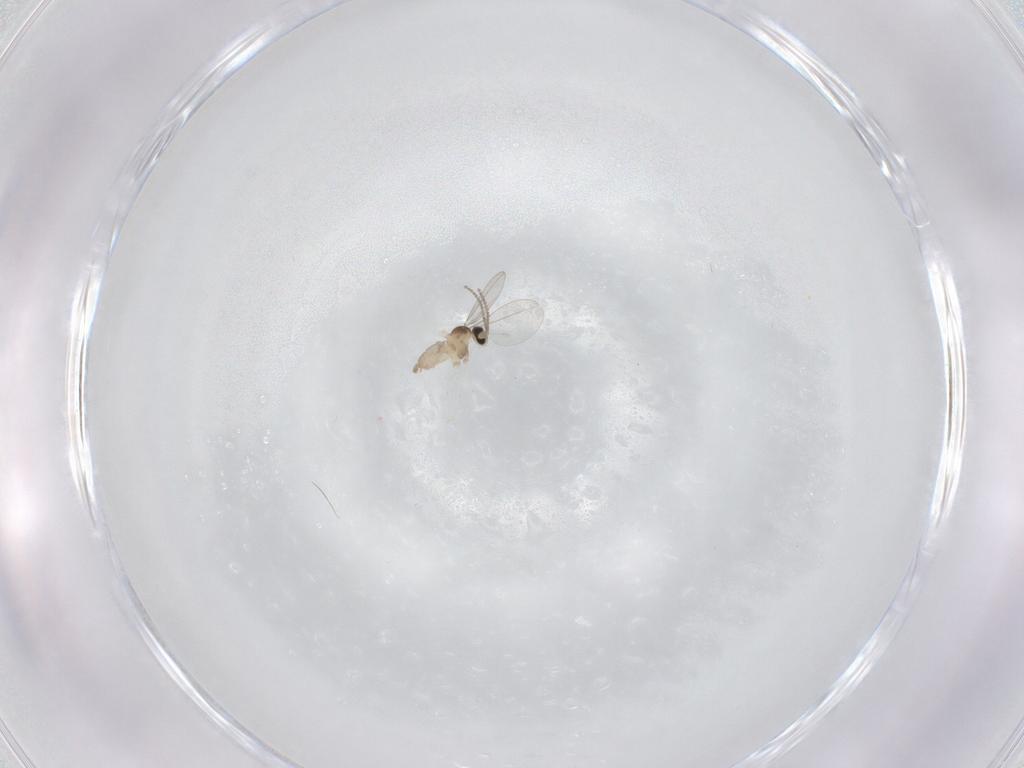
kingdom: Animalia
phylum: Arthropoda
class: Insecta
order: Diptera
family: Cecidomyiidae
